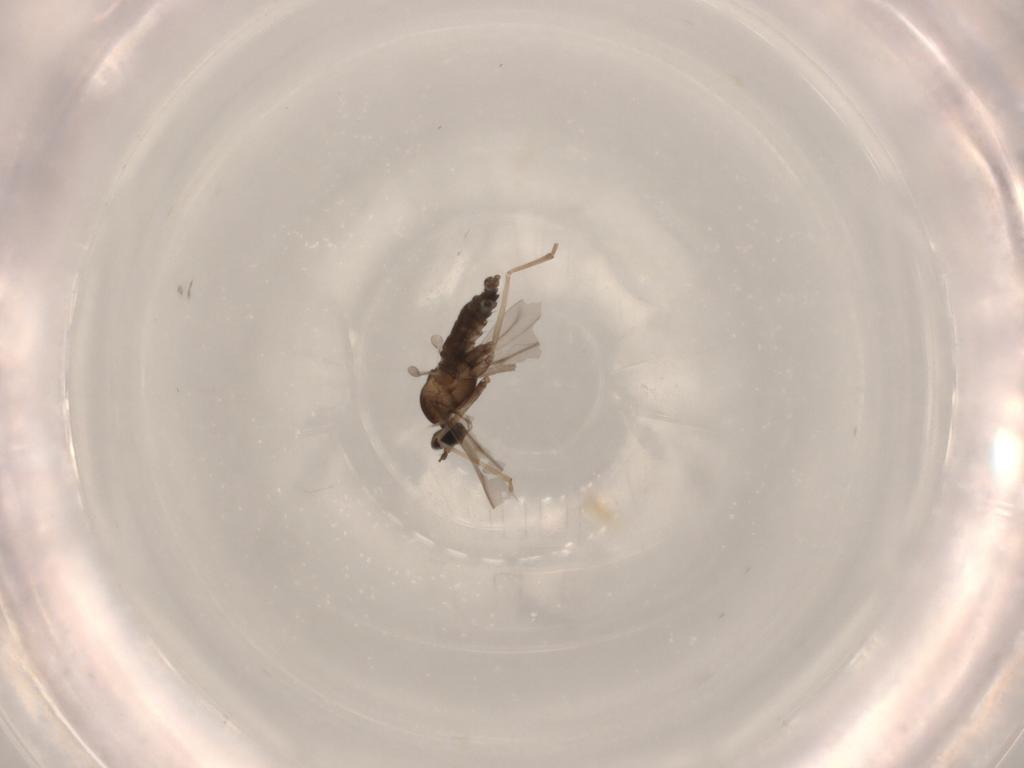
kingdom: Animalia
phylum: Arthropoda
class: Insecta
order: Diptera
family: Cecidomyiidae
